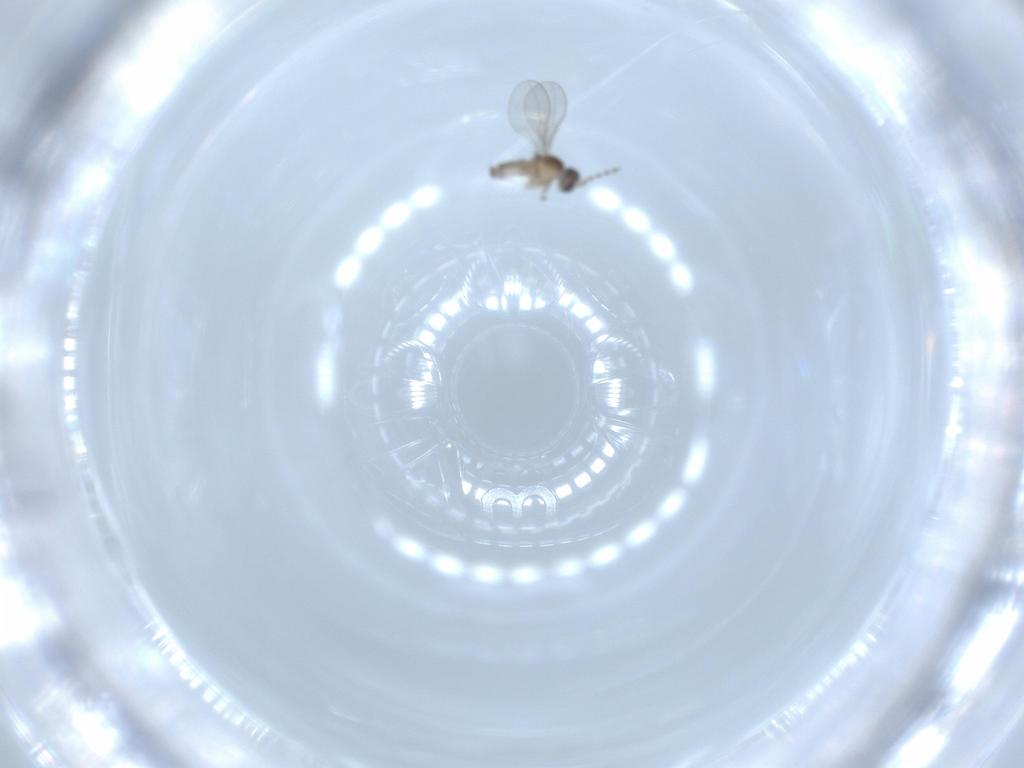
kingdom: Animalia
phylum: Arthropoda
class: Insecta
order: Diptera
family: Cecidomyiidae
